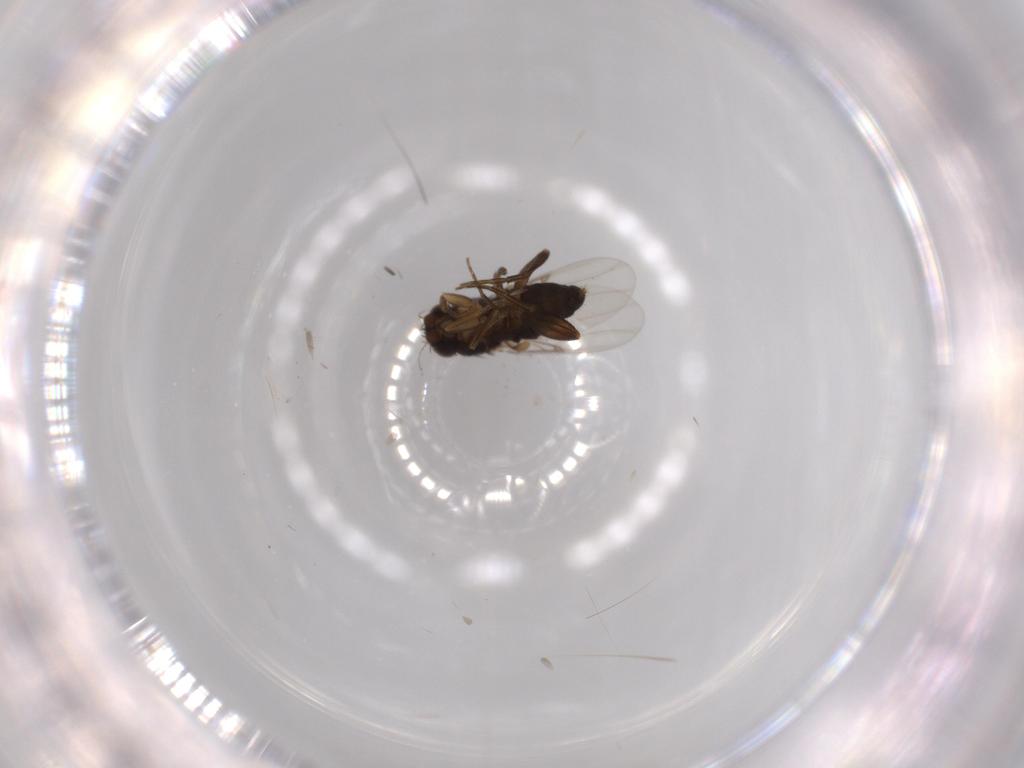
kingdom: Animalia
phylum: Arthropoda
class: Insecta
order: Diptera
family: Phoridae
